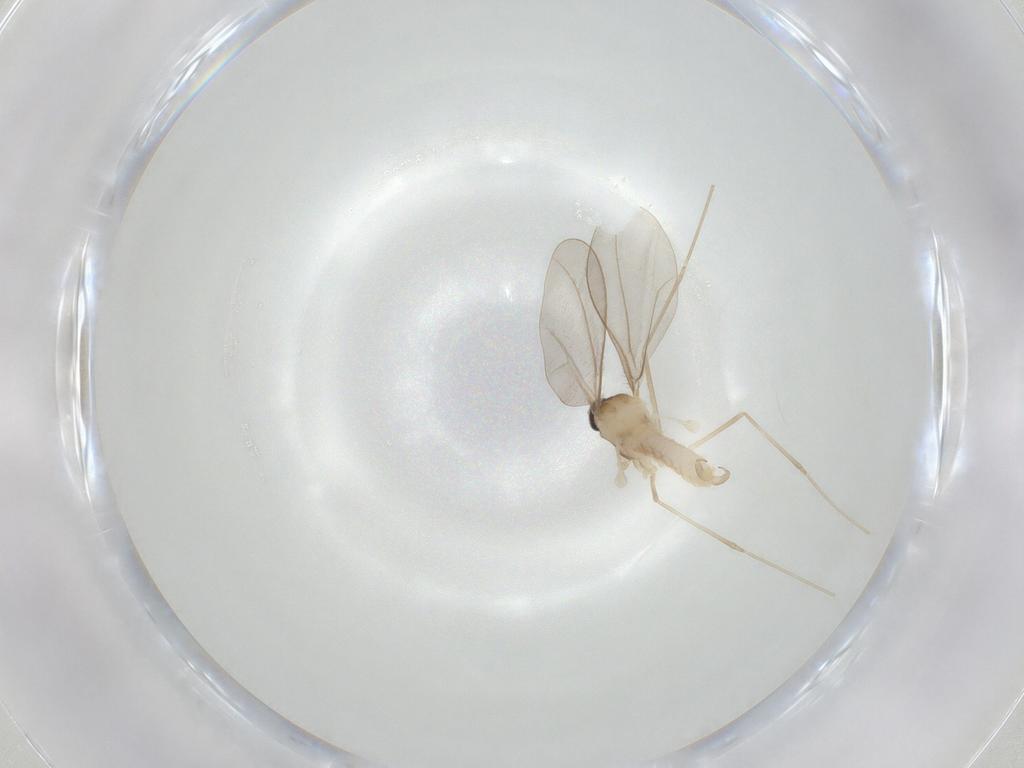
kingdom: Animalia
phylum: Arthropoda
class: Insecta
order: Diptera
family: Cecidomyiidae
